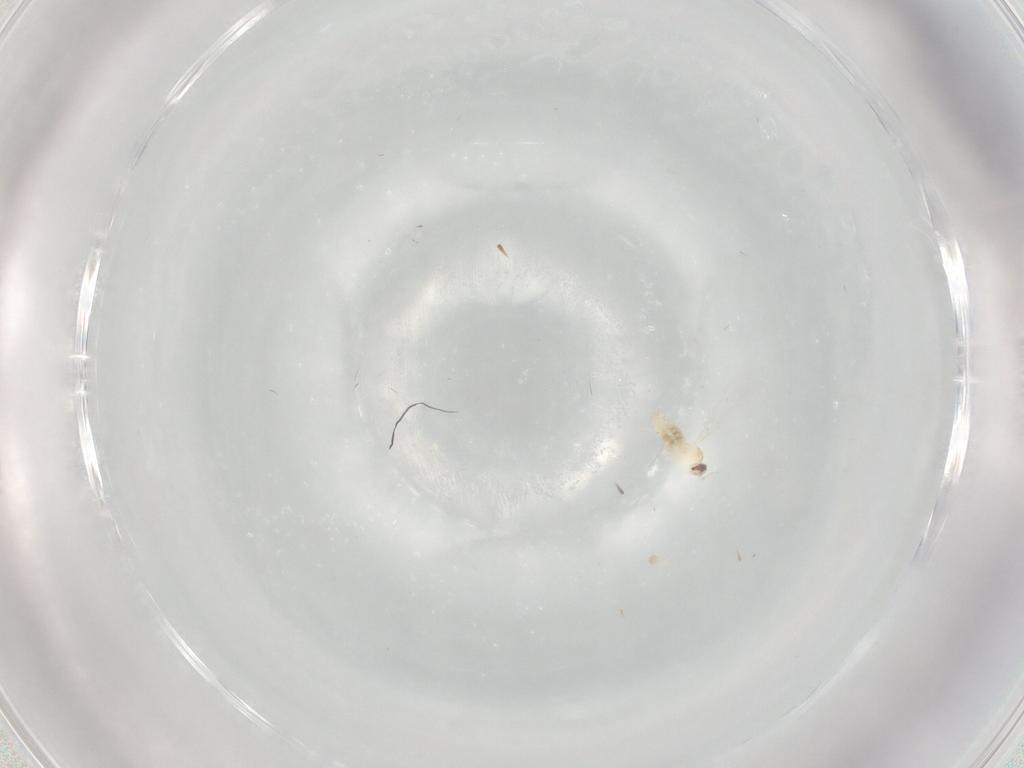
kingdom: Animalia
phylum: Arthropoda
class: Insecta
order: Diptera
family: Cecidomyiidae
